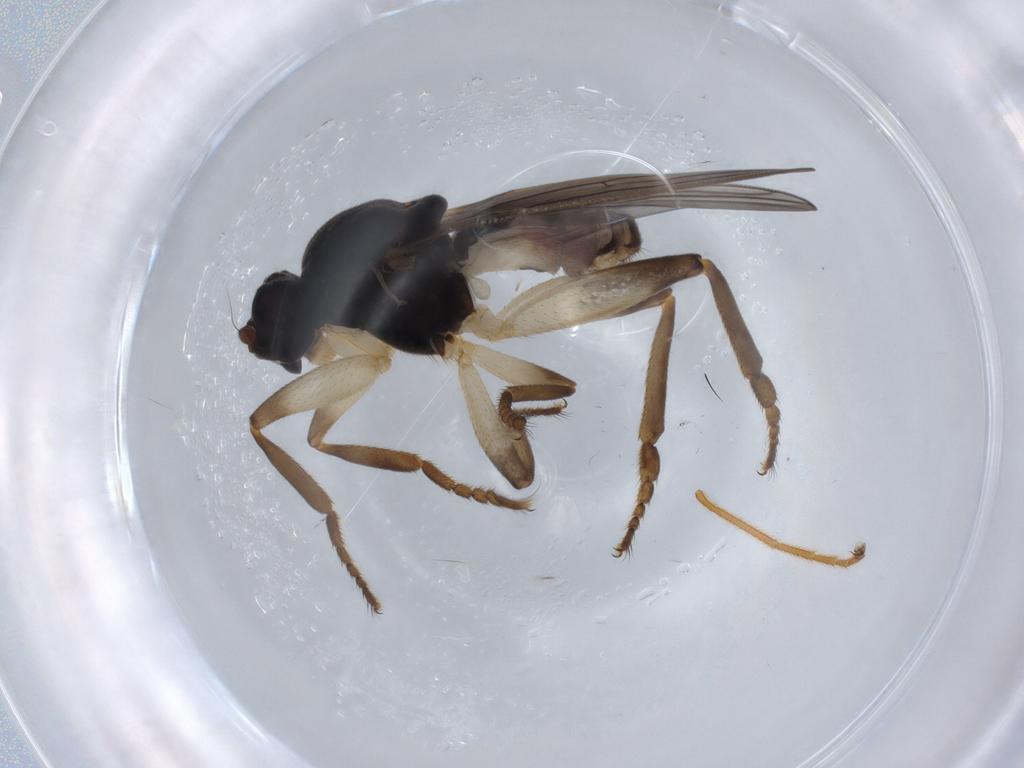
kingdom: Animalia
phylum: Arthropoda
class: Insecta
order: Diptera
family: Sphaeroceridae
